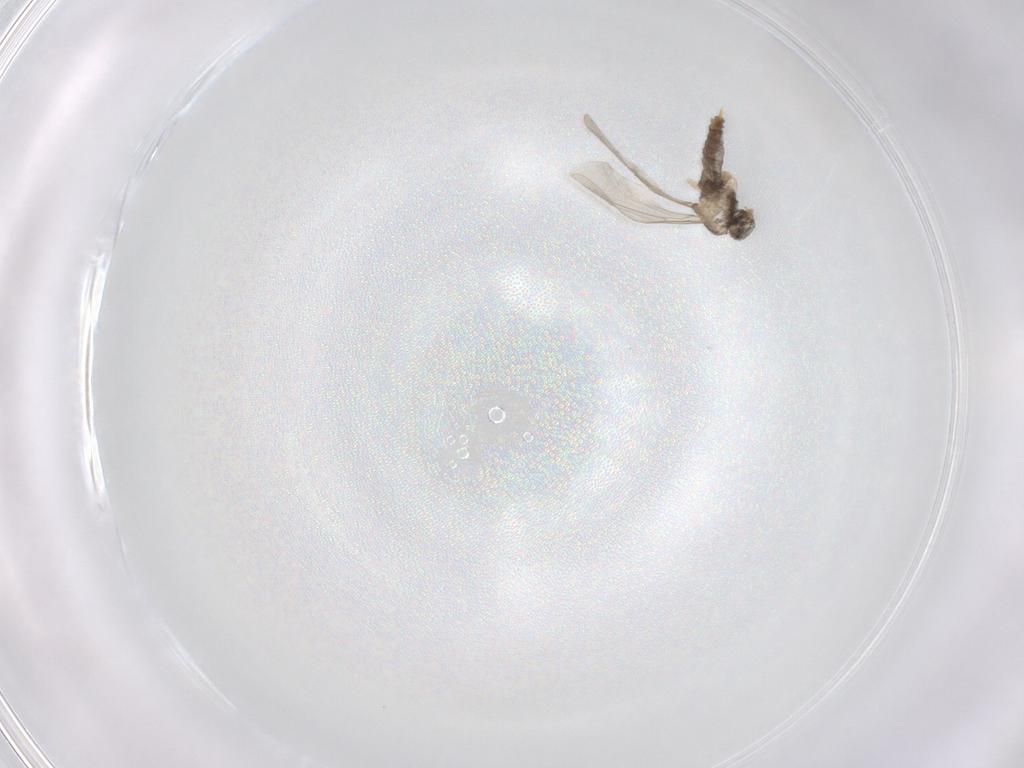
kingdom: Animalia
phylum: Arthropoda
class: Insecta
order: Diptera
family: Cecidomyiidae
